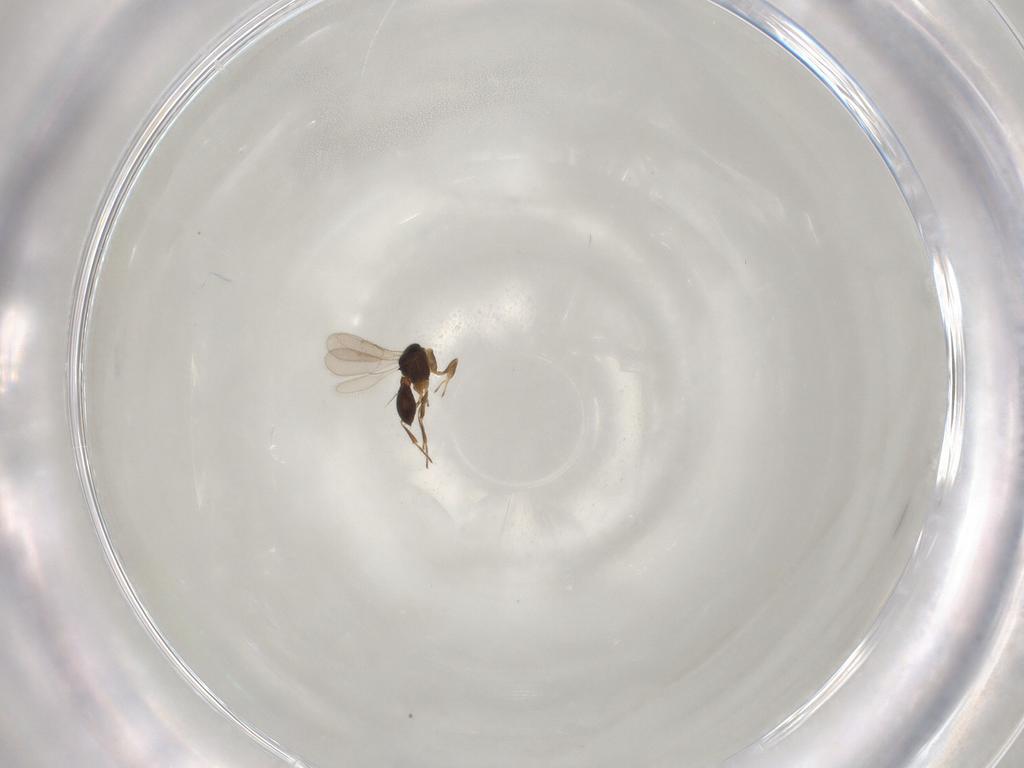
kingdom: Animalia
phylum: Arthropoda
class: Insecta
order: Hymenoptera
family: Scelionidae
